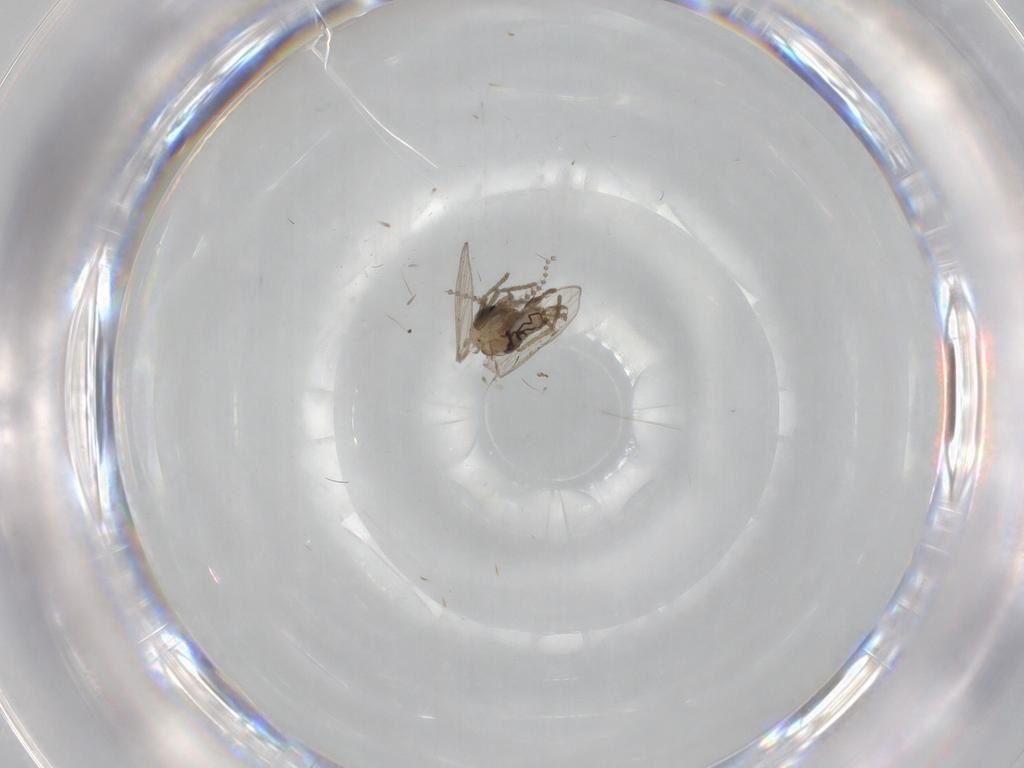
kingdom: Animalia
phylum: Arthropoda
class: Insecta
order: Diptera
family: Psychodidae
